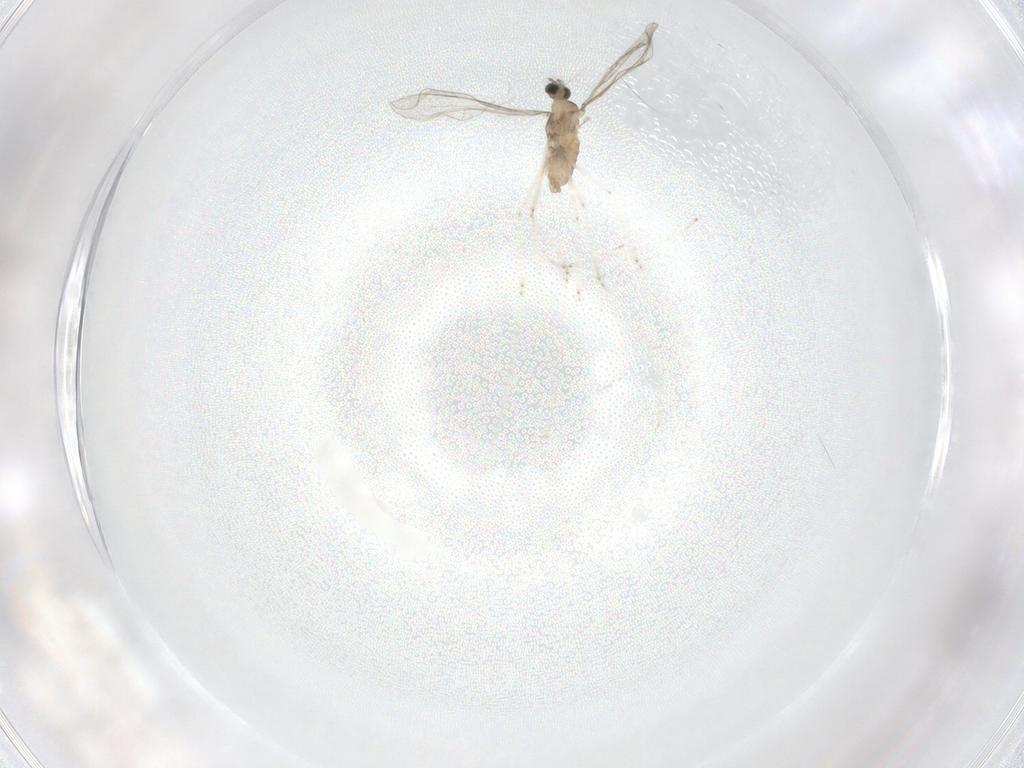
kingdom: Animalia
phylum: Arthropoda
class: Insecta
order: Diptera
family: Cecidomyiidae
